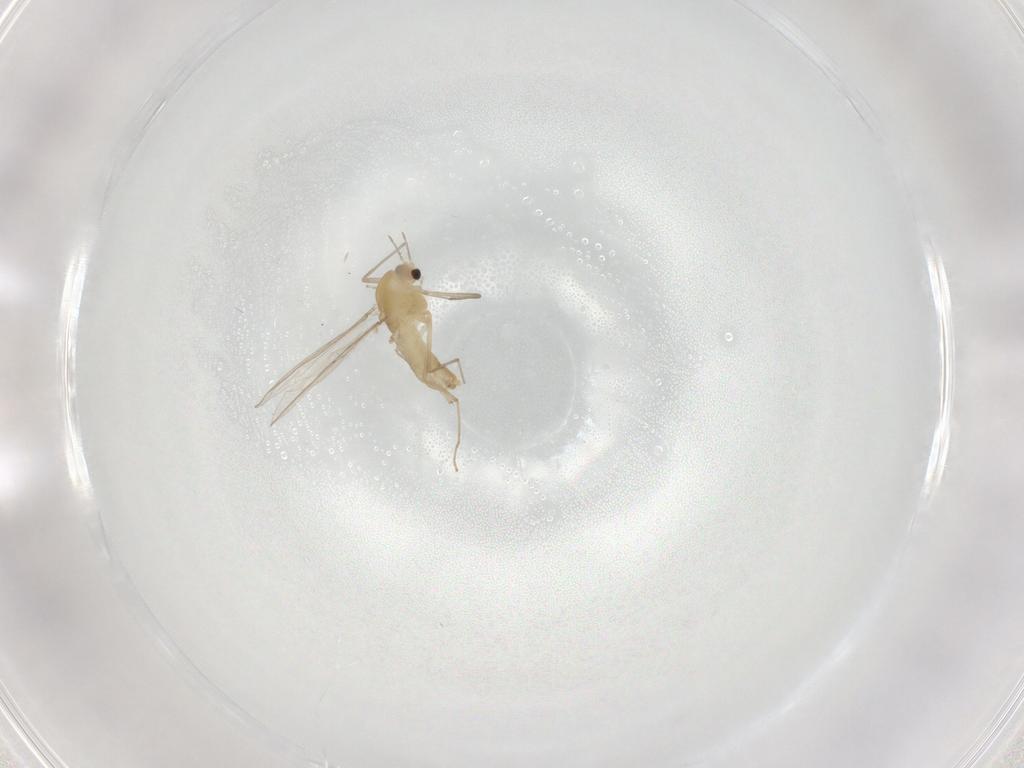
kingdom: Animalia
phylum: Arthropoda
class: Insecta
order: Diptera
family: Chironomidae
